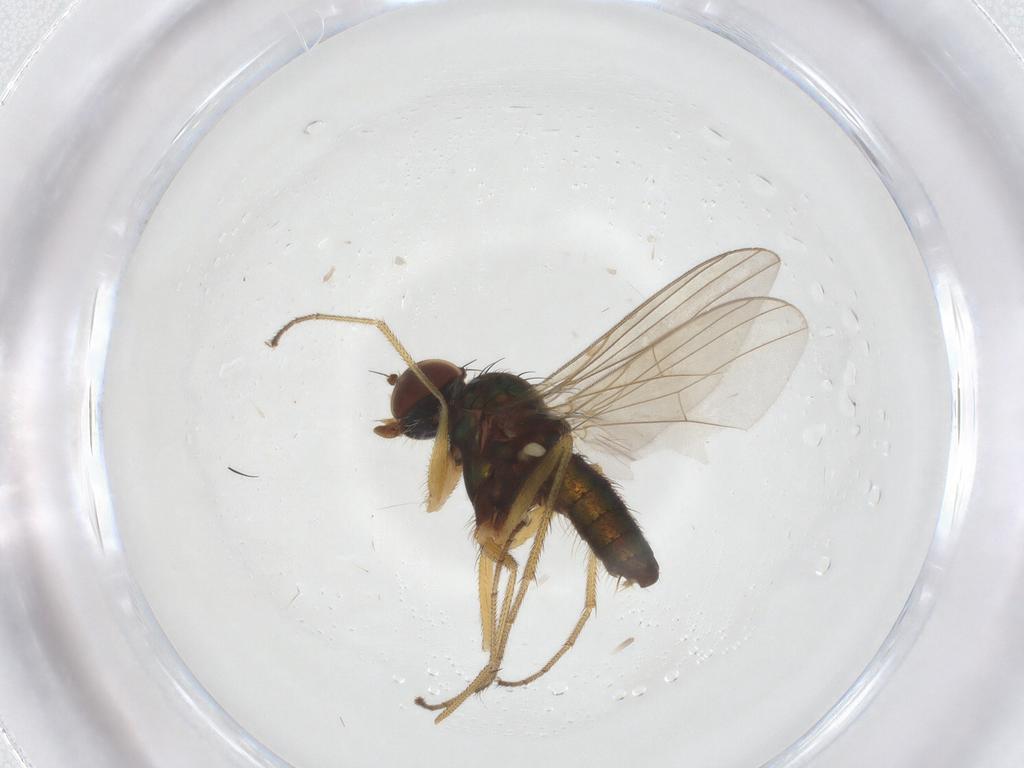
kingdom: Animalia
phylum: Arthropoda
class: Insecta
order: Diptera
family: Dolichopodidae
